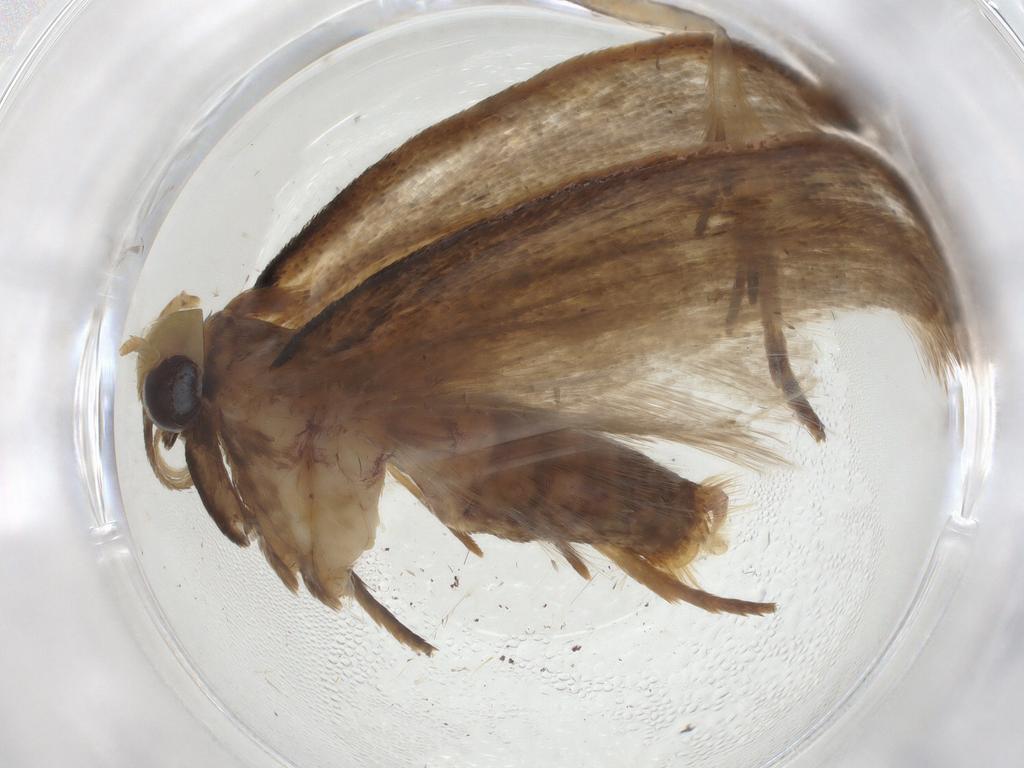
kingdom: Animalia
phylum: Arthropoda
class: Insecta
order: Lepidoptera
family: Depressariidae
